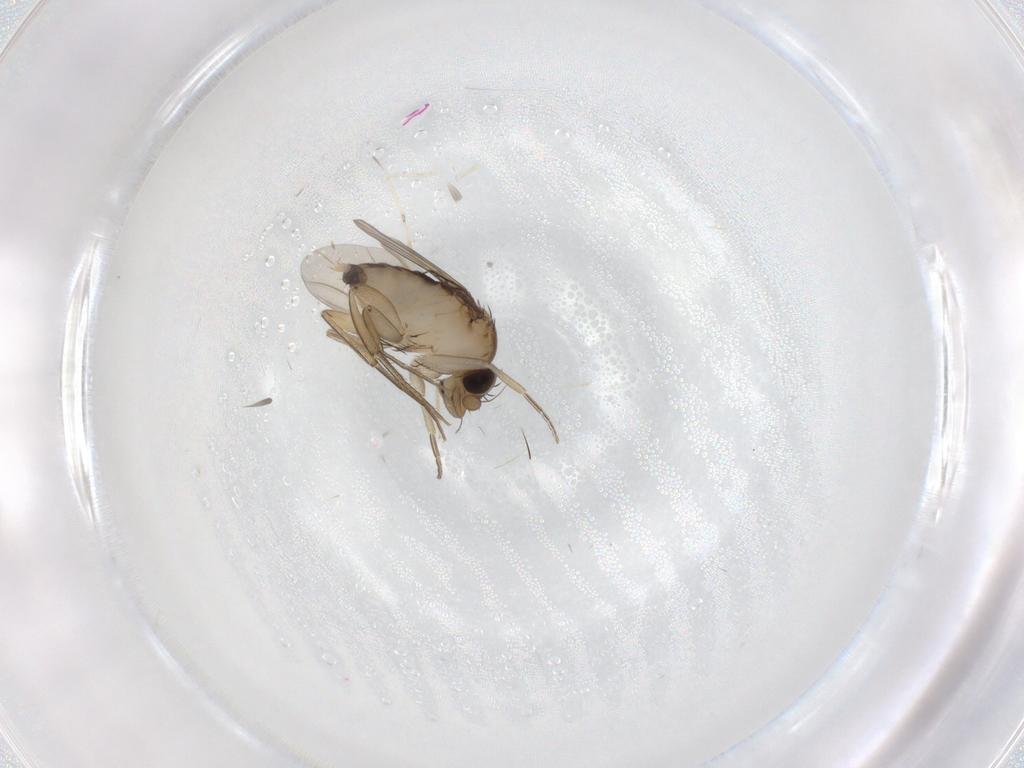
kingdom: Animalia
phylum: Arthropoda
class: Insecta
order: Diptera
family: Phoridae
